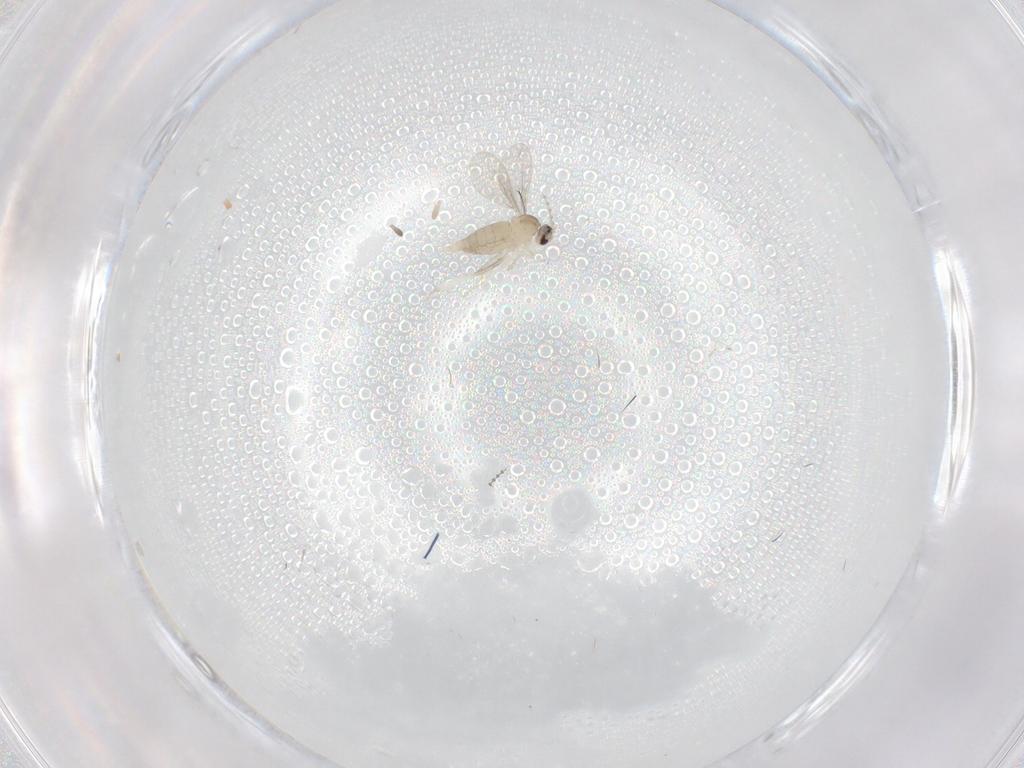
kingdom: Animalia
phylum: Arthropoda
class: Insecta
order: Diptera
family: Cecidomyiidae
